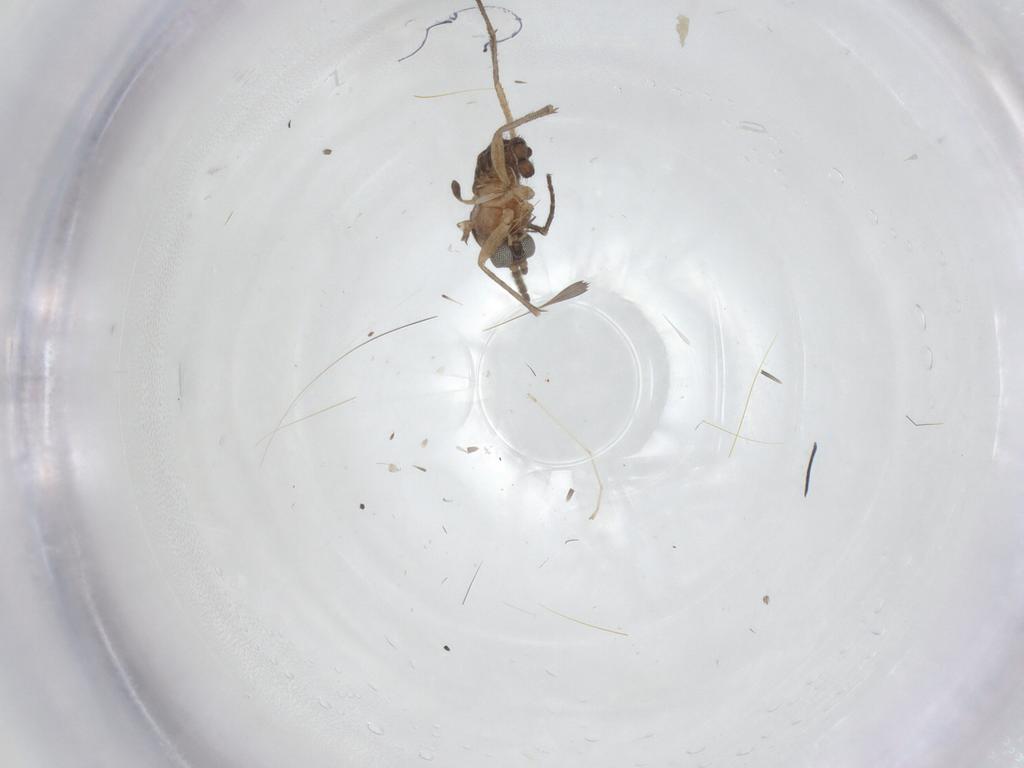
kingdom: Animalia
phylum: Arthropoda
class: Insecta
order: Diptera
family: Sciaridae
